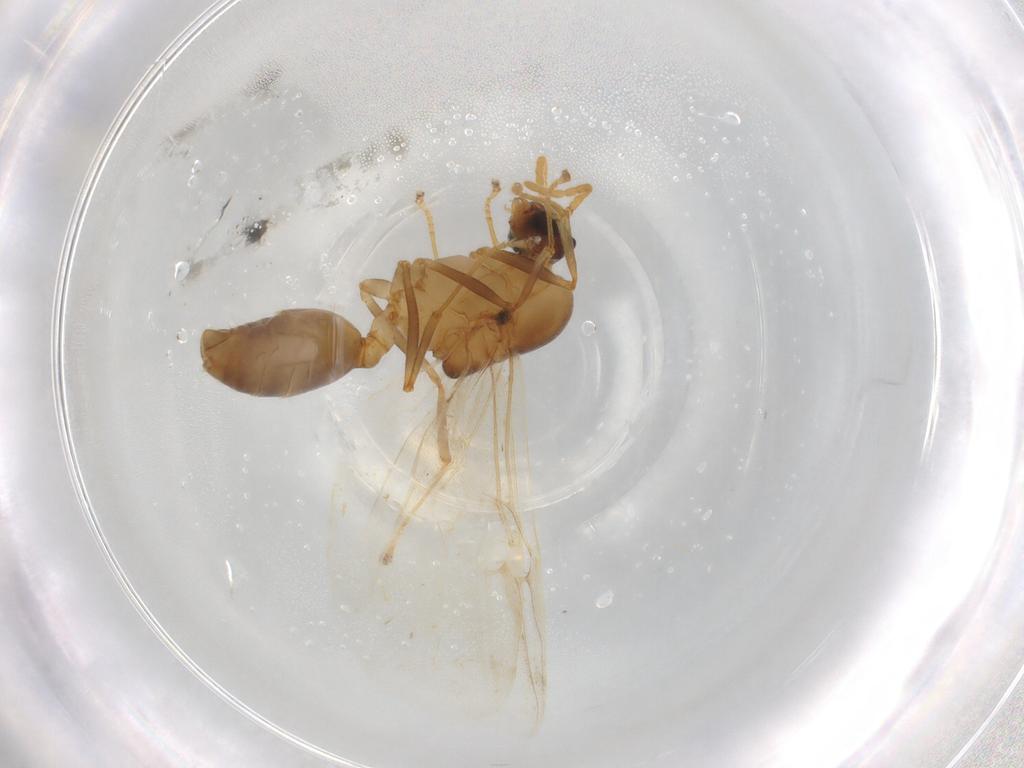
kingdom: Animalia
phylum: Arthropoda
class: Insecta
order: Hymenoptera
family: Formicidae
